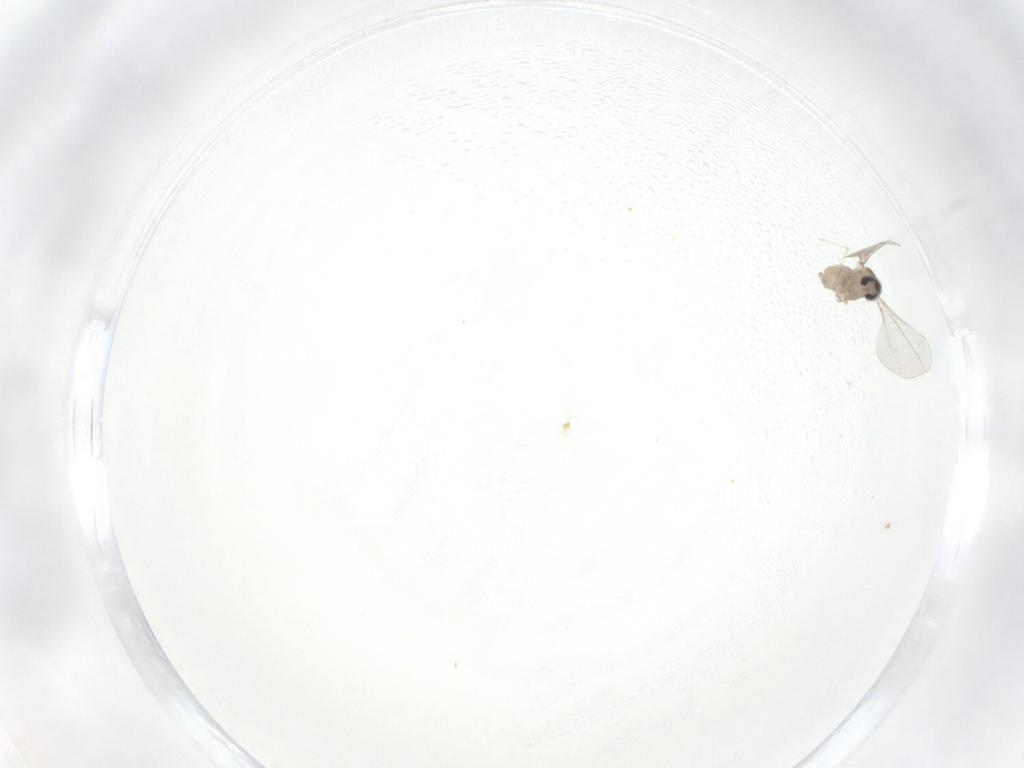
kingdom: Animalia
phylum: Arthropoda
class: Insecta
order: Diptera
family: Cecidomyiidae
